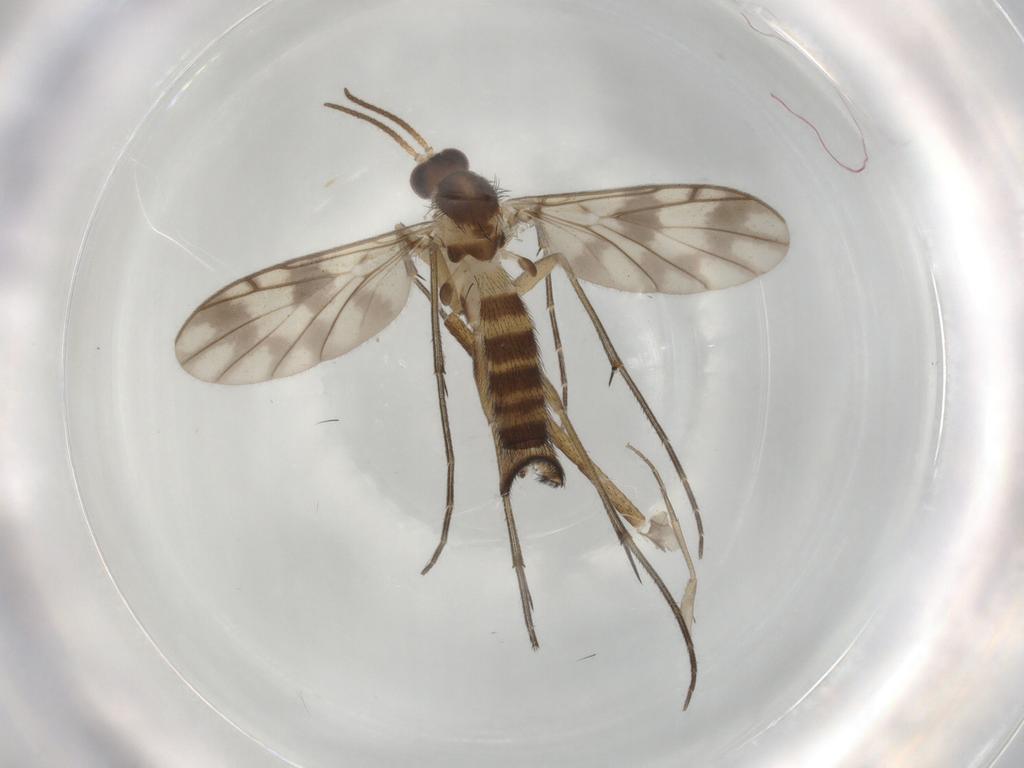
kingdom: Animalia
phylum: Arthropoda
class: Insecta
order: Diptera
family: Keroplatidae
